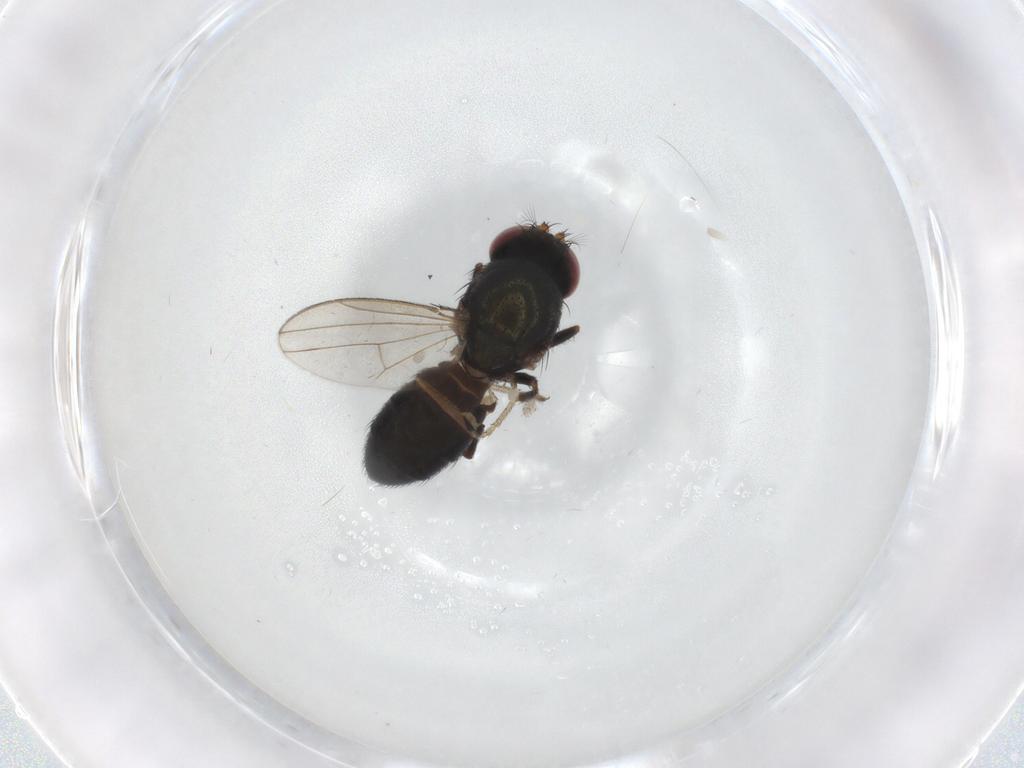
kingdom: Animalia
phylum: Arthropoda
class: Insecta
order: Diptera
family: Ephydridae
